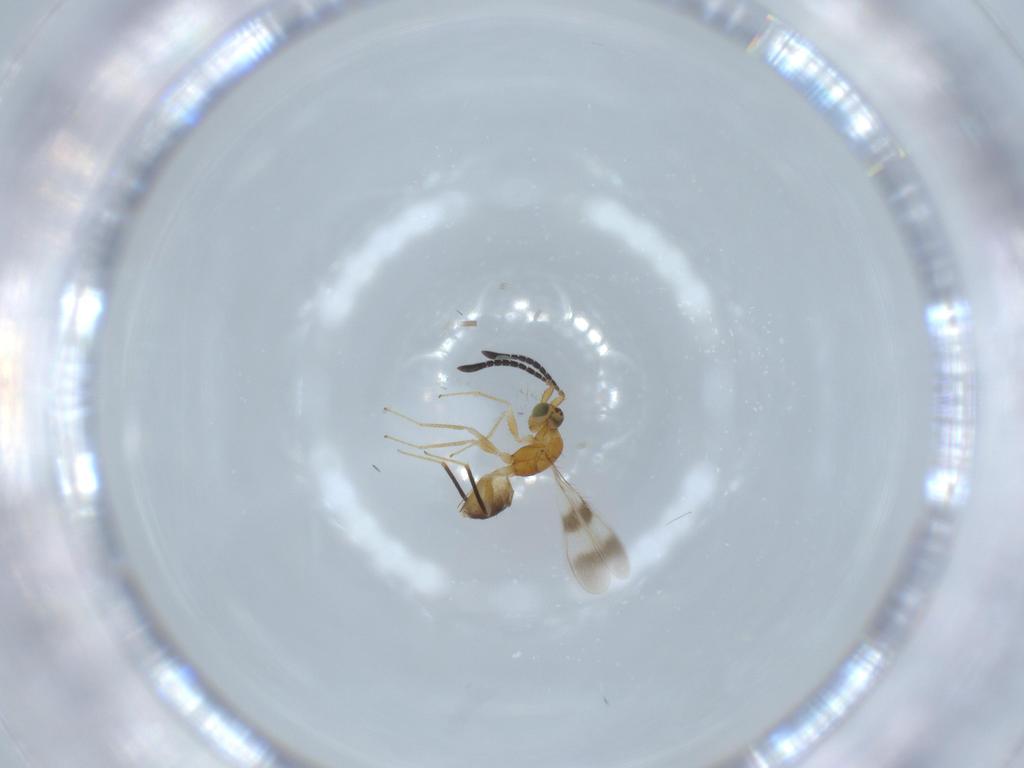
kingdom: Animalia
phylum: Arthropoda
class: Insecta
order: Hymenoptera
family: Mymaridae
